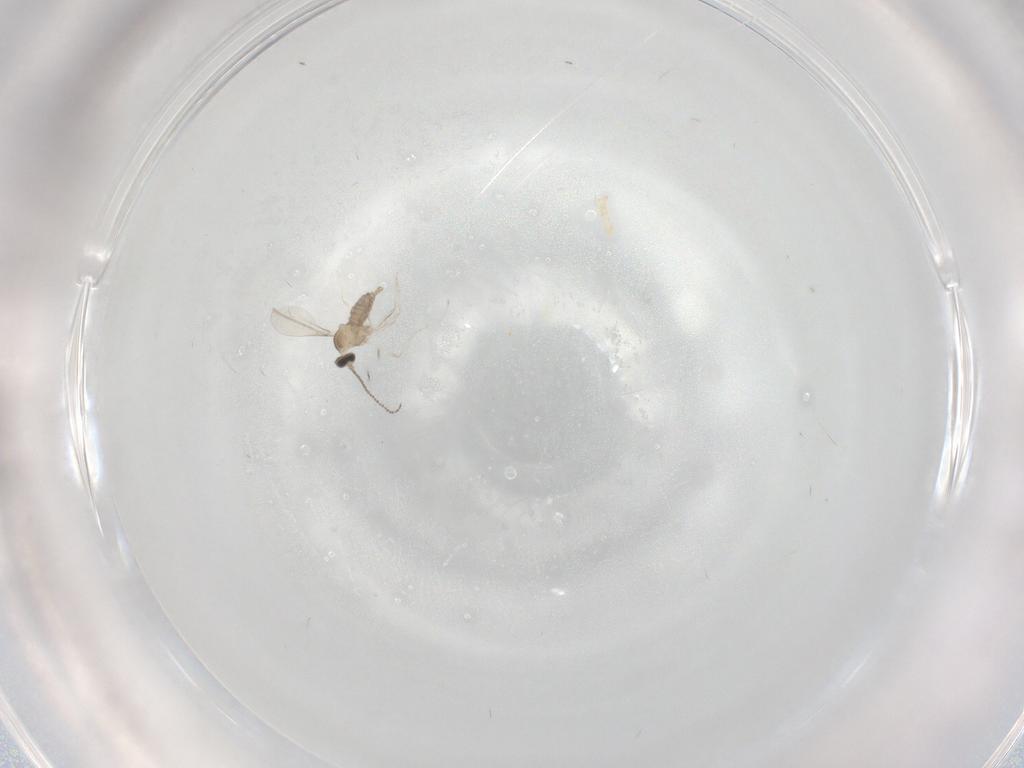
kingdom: Animalia
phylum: Arthropoda
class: Insecta
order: Diptera
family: Cecidomyiidae
